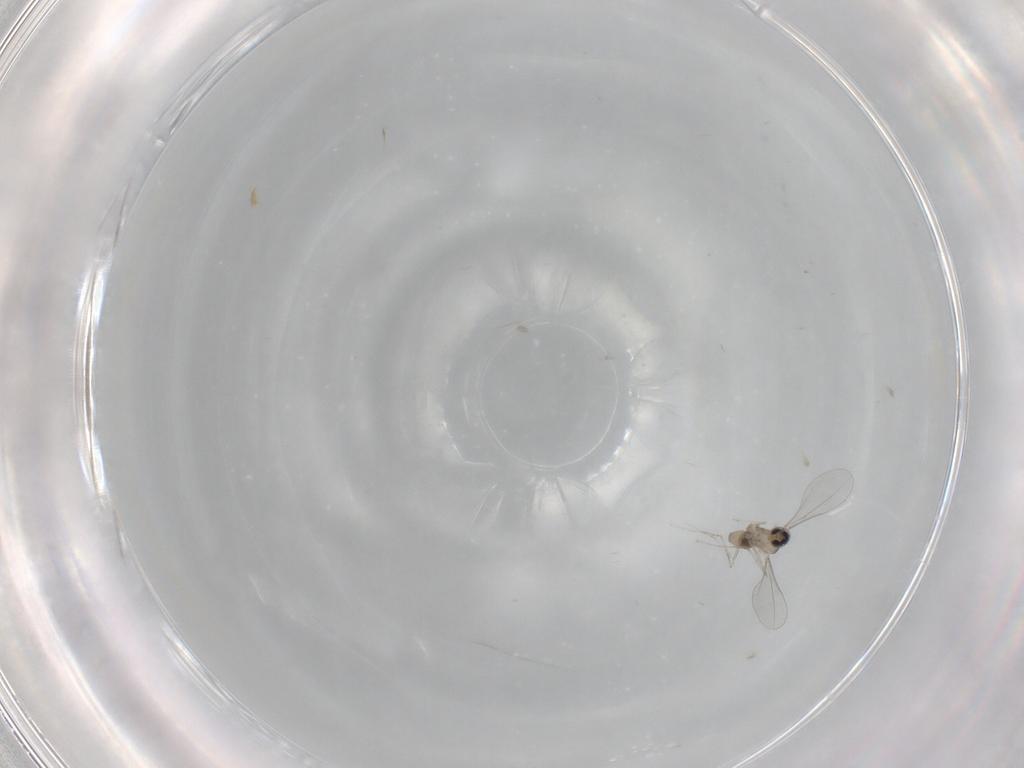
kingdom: Animalia
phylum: Arthropoda
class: Insecta
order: Diptera
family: Cecidomyiidae
